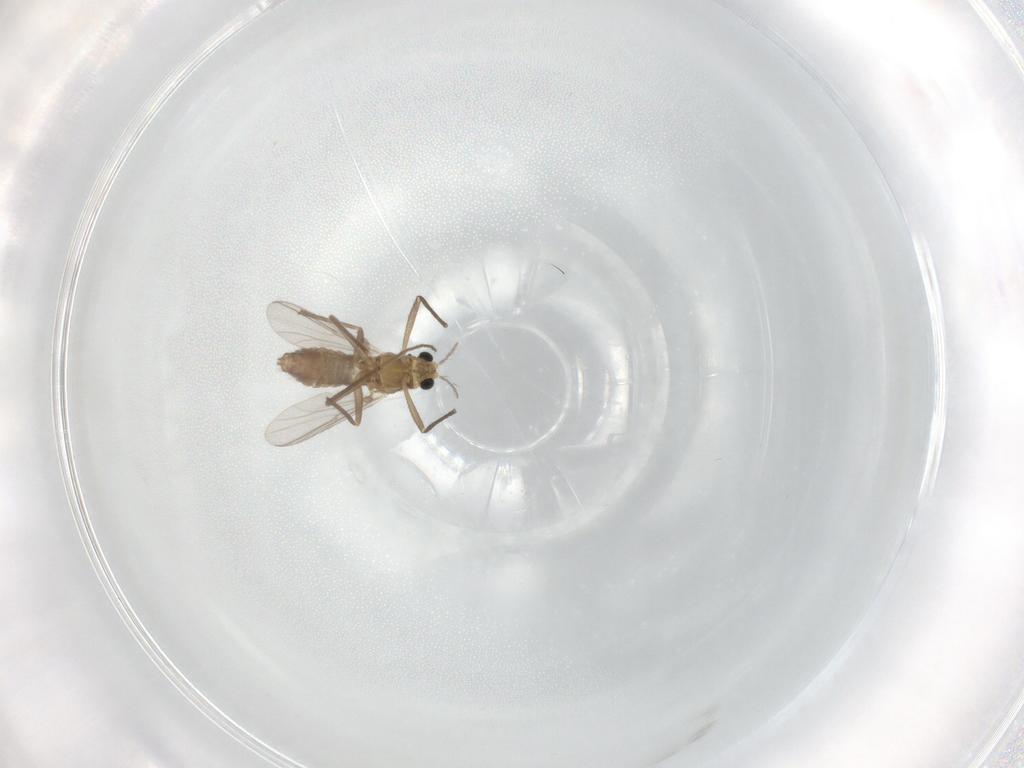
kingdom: Animalia
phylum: Arthropoda
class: Insecta
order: Diptera
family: Chironomidae
